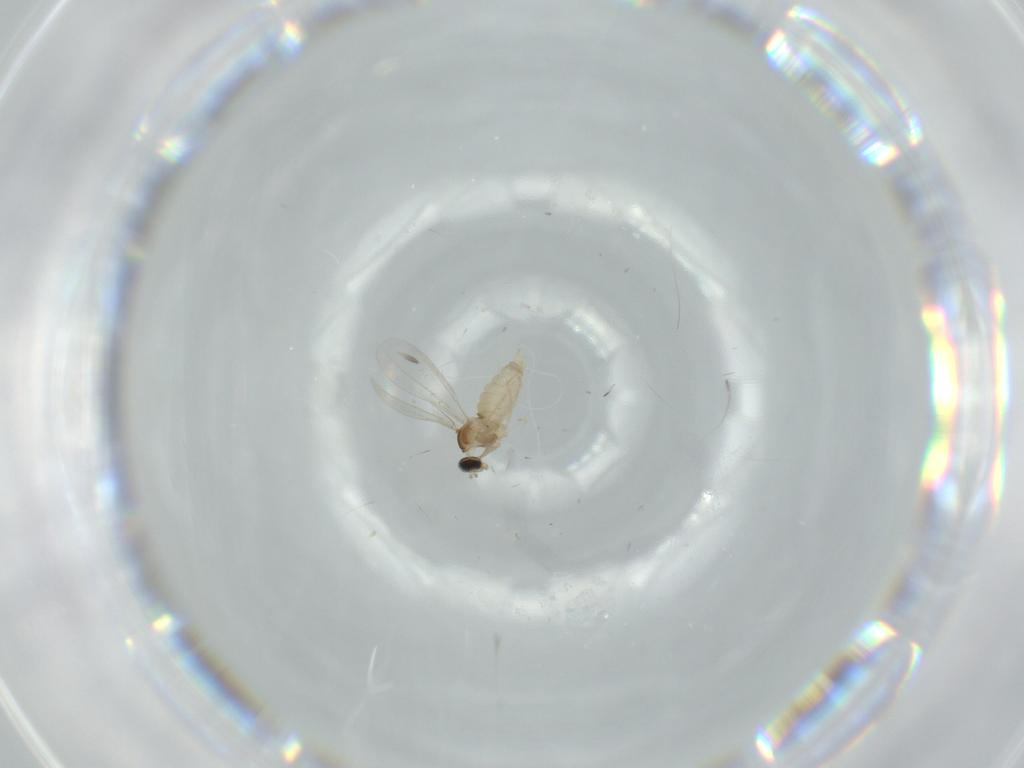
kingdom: Animalia
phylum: Arthropoda
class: Insecta
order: Diptera
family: Cecidomyiidae
